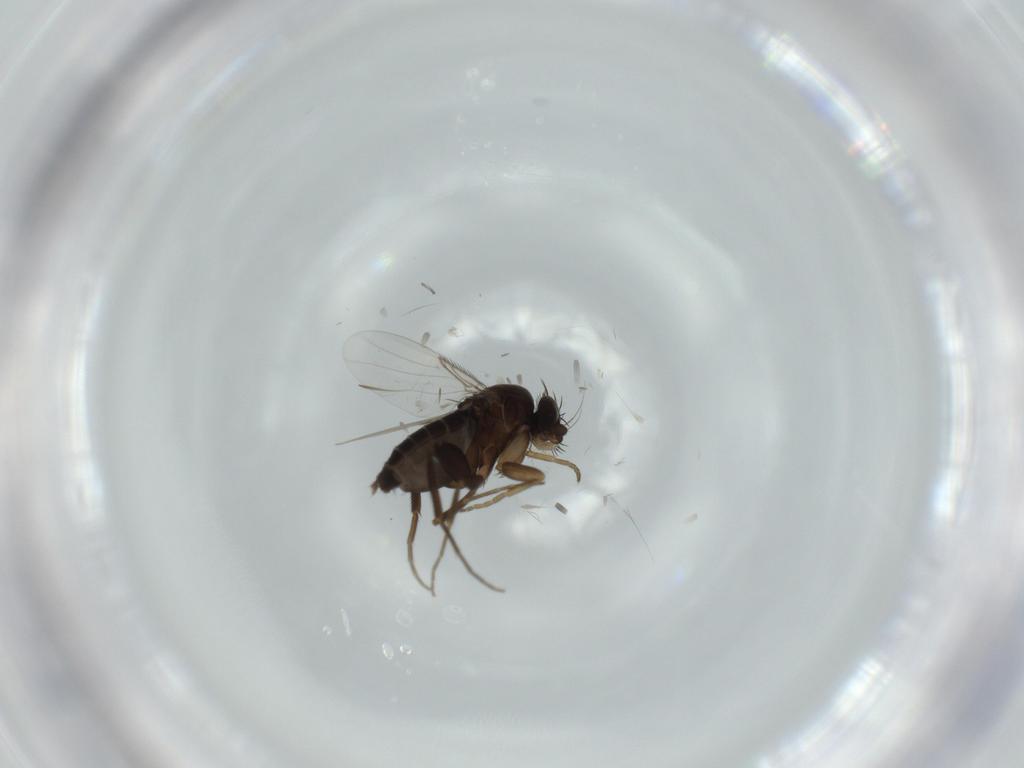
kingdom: Animalia
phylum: Arthropoda
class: Insecta
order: Diptera
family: Phoridae
